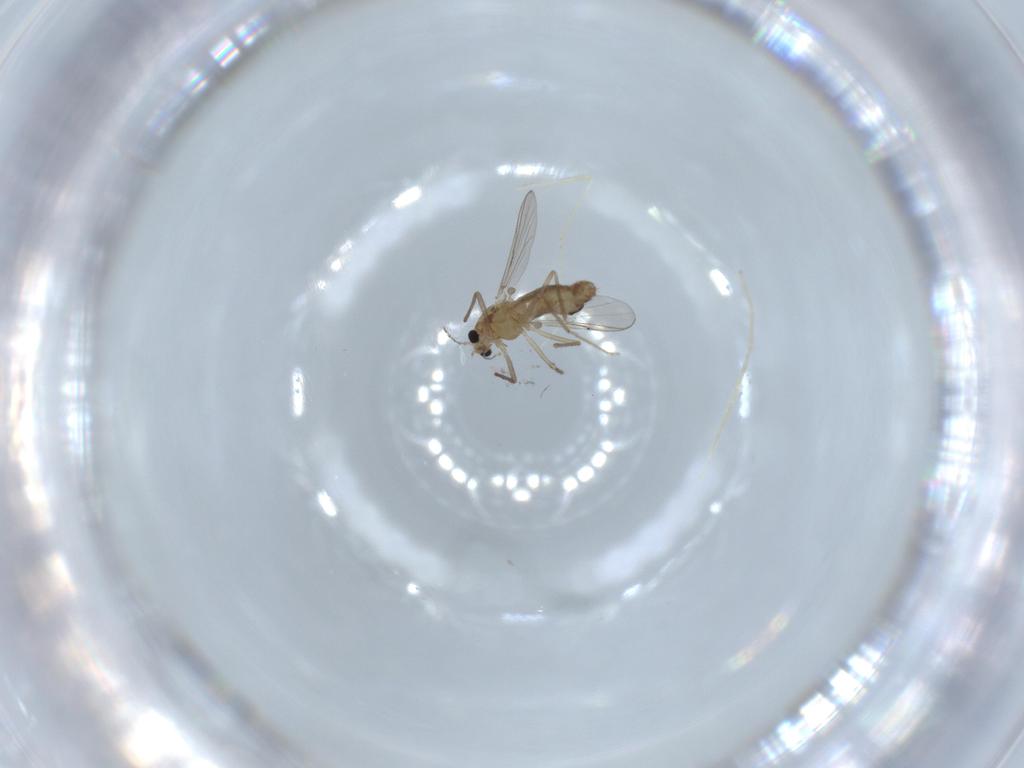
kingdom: Animalia
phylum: Arthropoda
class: Insecta
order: Diptera
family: Chironomidae
